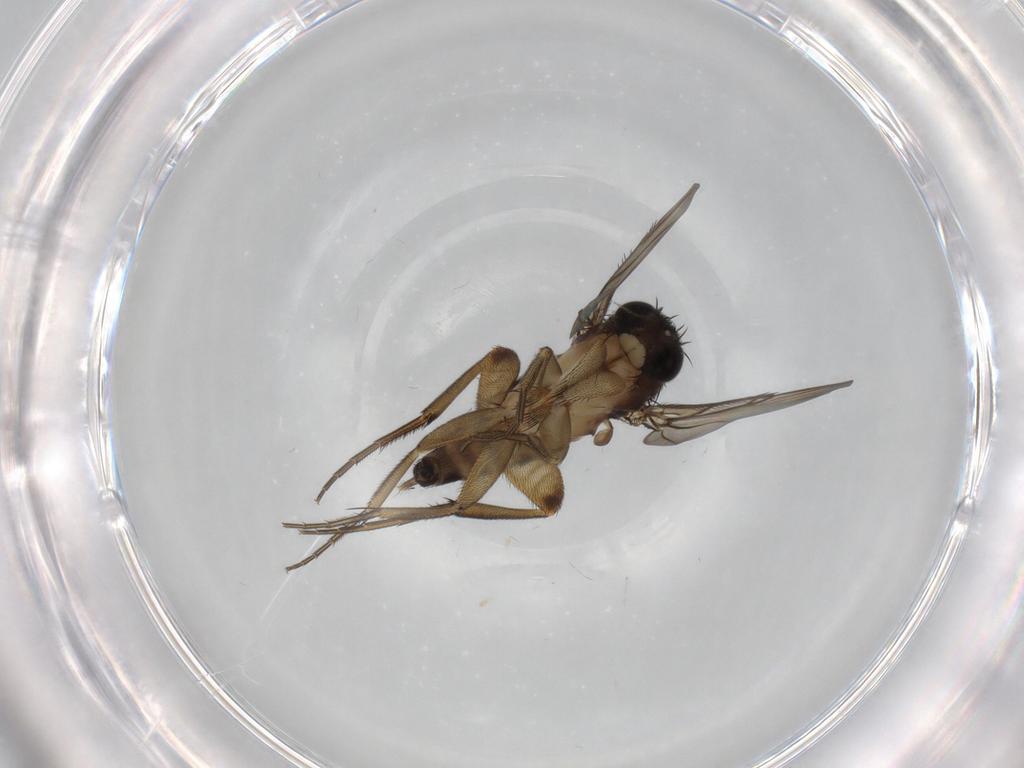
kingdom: Animalia
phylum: Arthropoda
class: Insecta
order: Diptera
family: Phoridae
